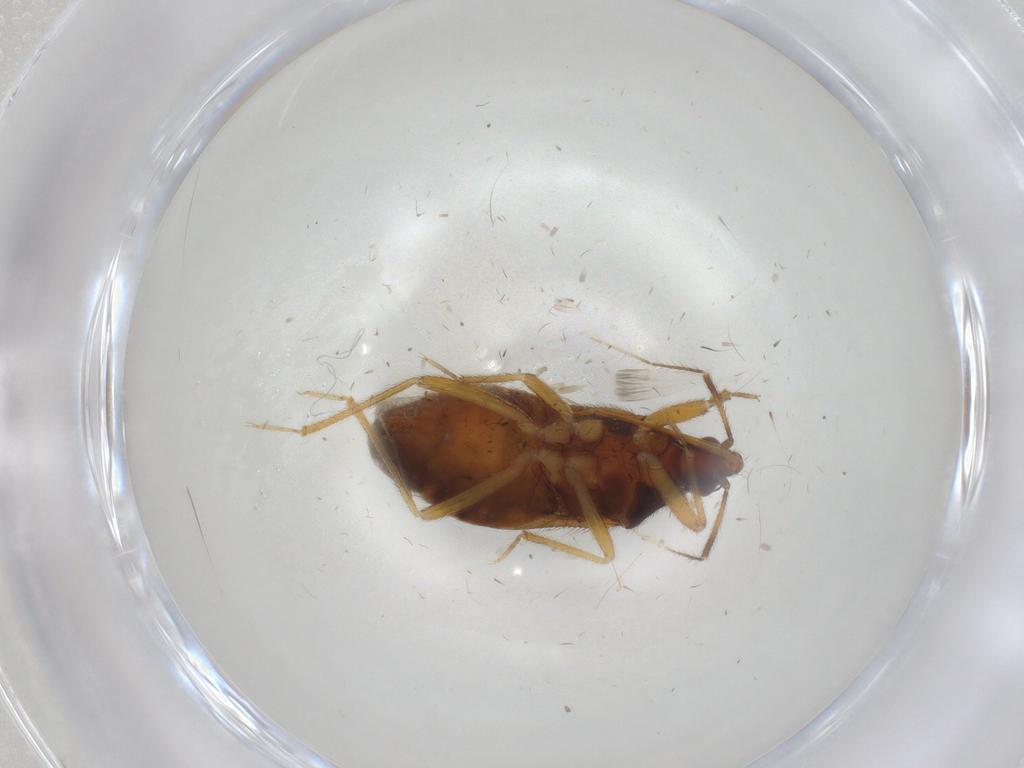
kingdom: Animalia
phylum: Arthropoda
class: Insecta
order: Hemiptera
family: Anthocoridae
